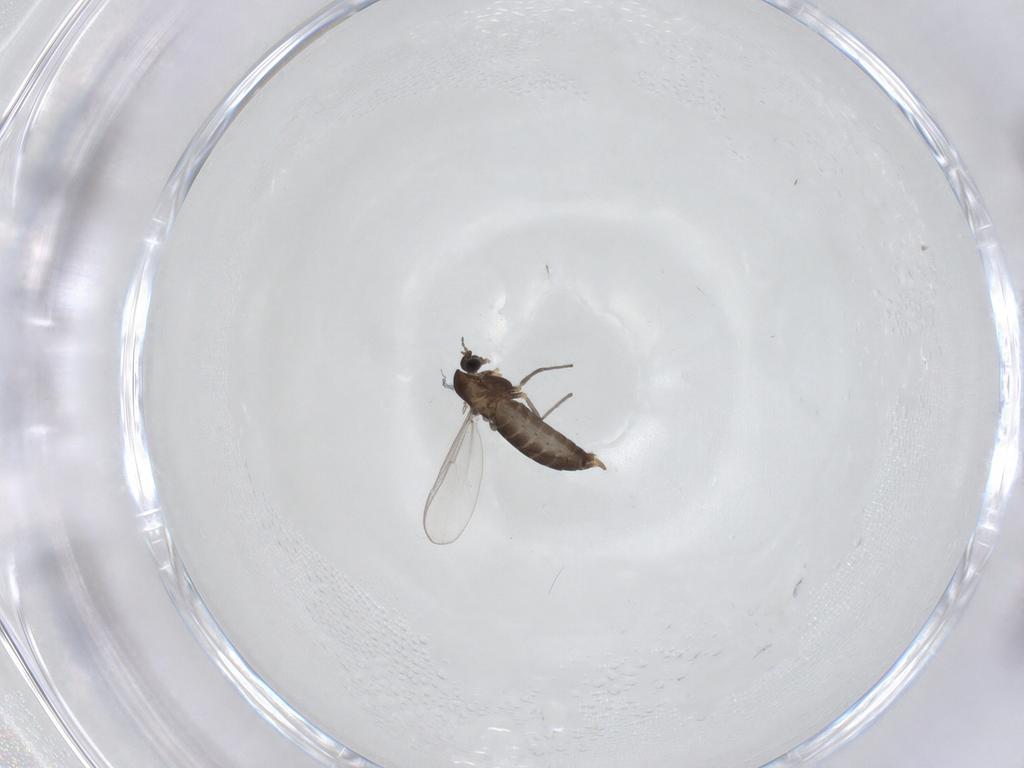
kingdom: Animalia
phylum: Arthropoda
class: Insecta
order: Diptera
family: Chironomidae
